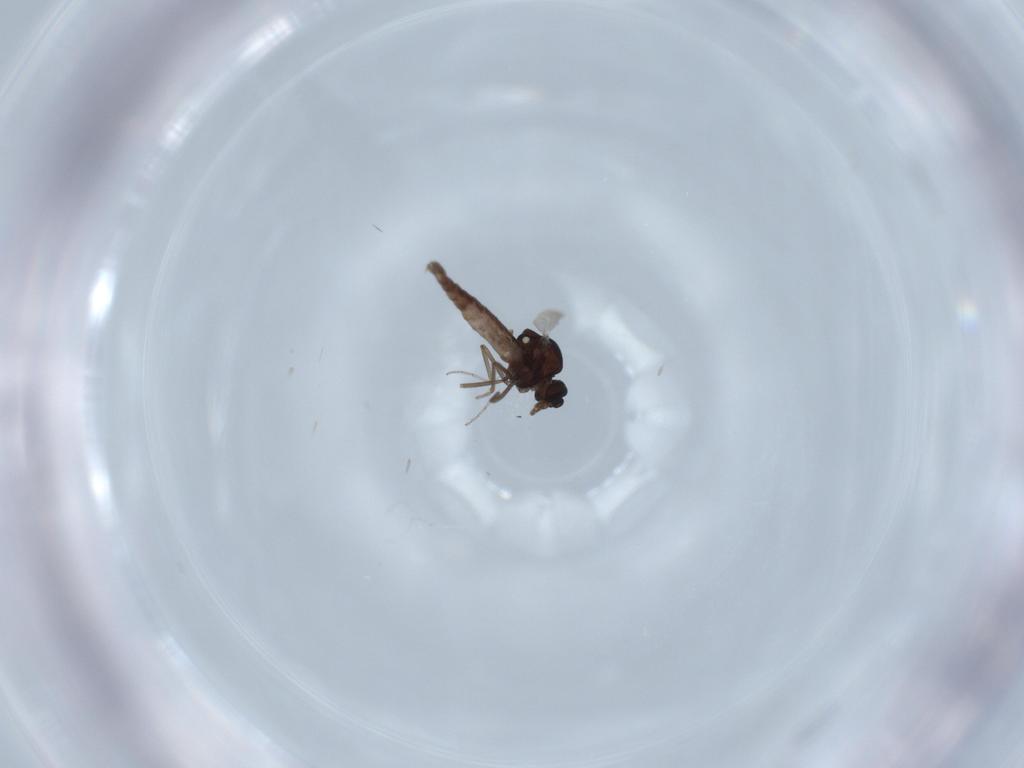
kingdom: Animalia
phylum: Arthropoda
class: Insecta
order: Diptera
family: Ceratopogonidae
